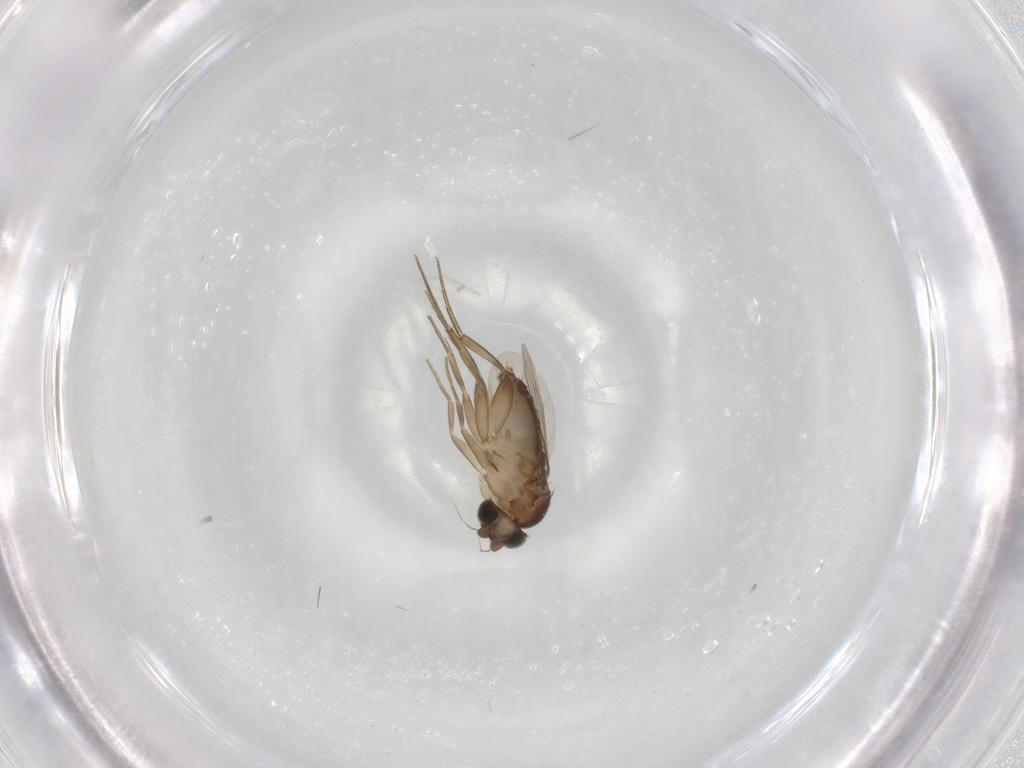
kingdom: Animalia
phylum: Arthropoda
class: Insecta
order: Diptera
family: Phoridae
